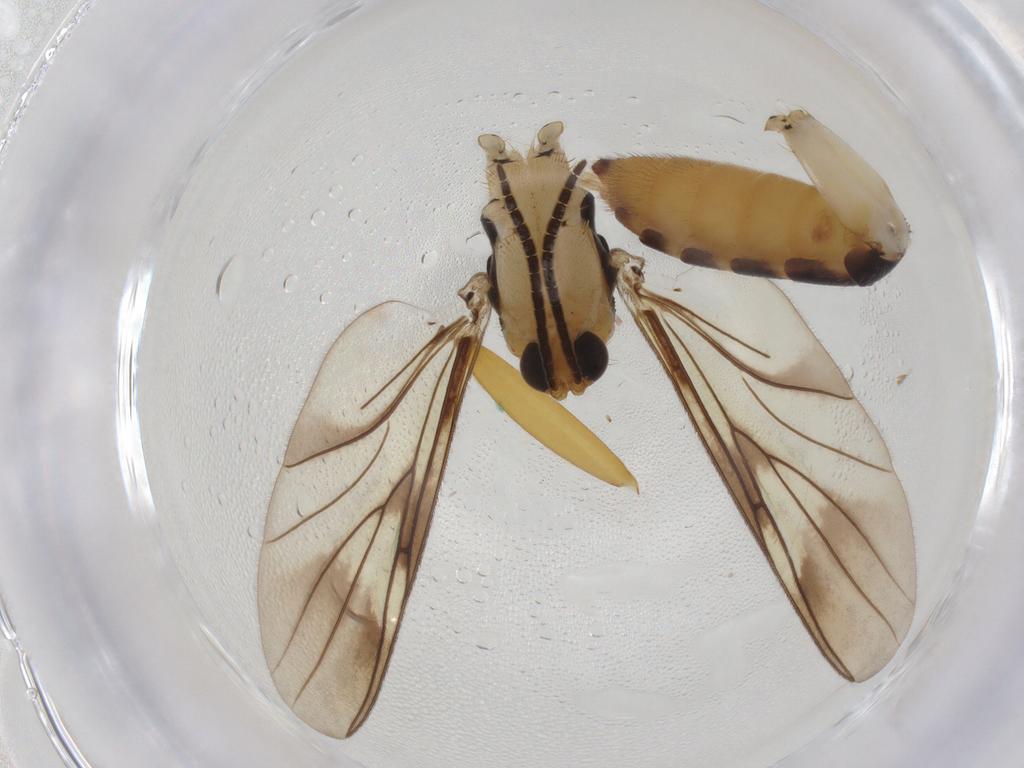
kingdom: Animalia
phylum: Arthropoda
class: Insecta
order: Diptera
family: Mycetophilidae
